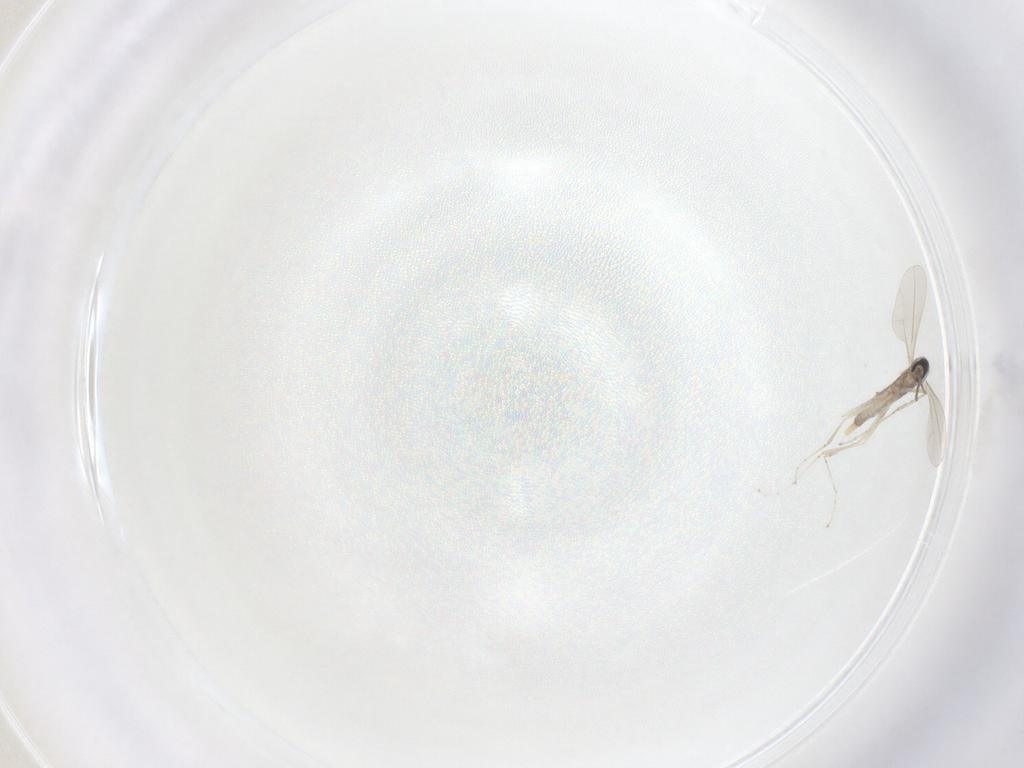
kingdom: Animalia
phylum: Arthropoda
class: Insecta
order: Diptera
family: Cecidomyiidae
